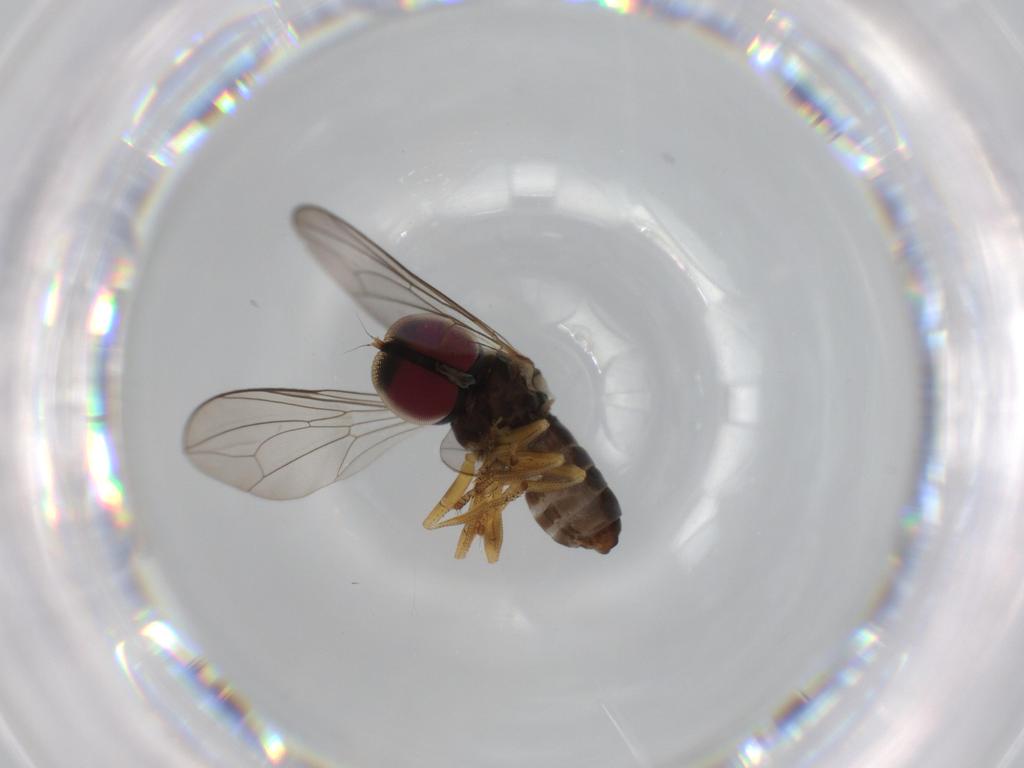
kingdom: Animalia
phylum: Arthropoda
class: Insecta
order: Diptera
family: Pipunculidae
